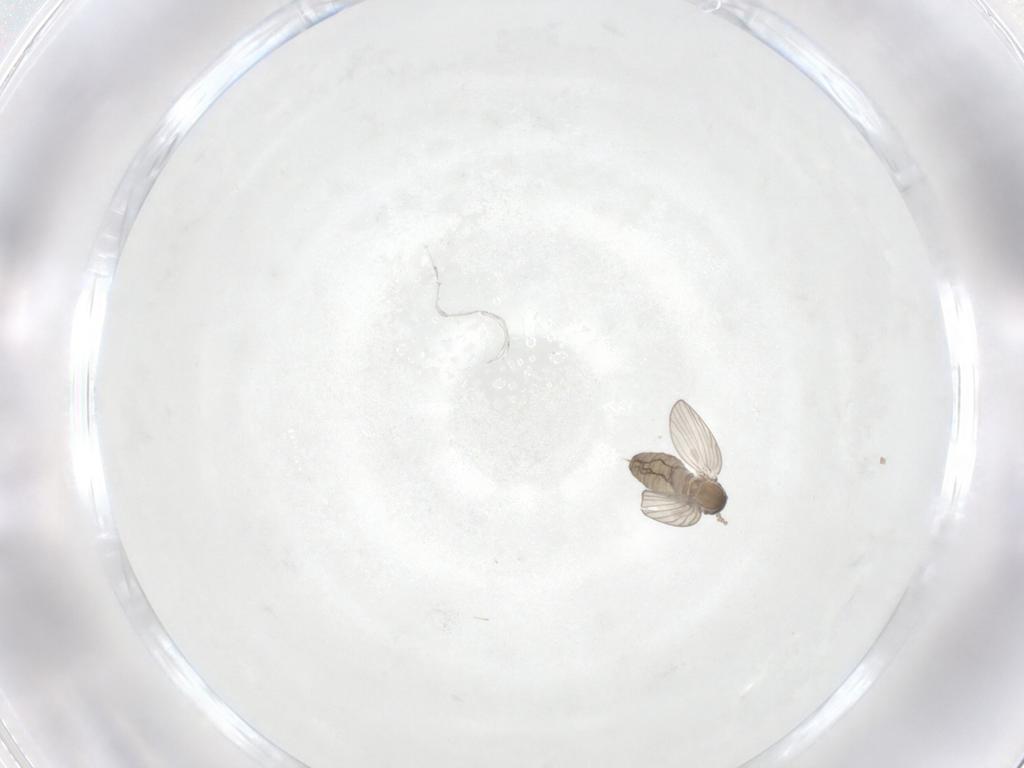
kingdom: Animalia
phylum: Arthropoda
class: Insecta
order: Diptera
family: Psychodidae
